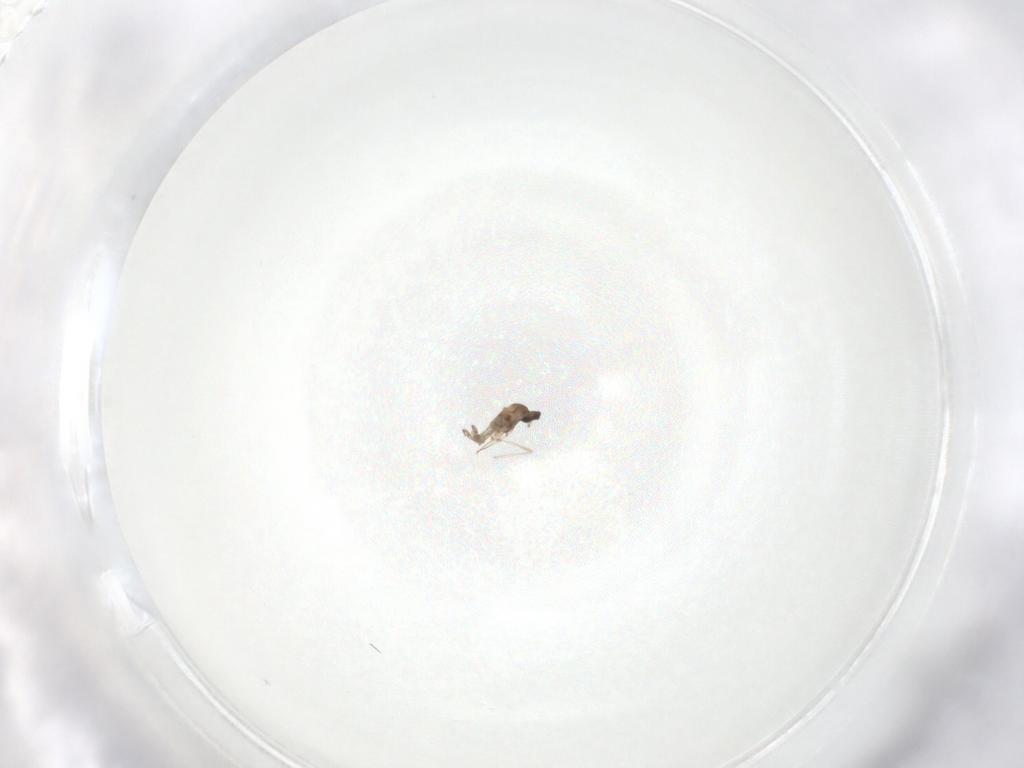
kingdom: Animalia
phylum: Arthropoda
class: Insecta
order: Diptera
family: Cecidomyiidae
